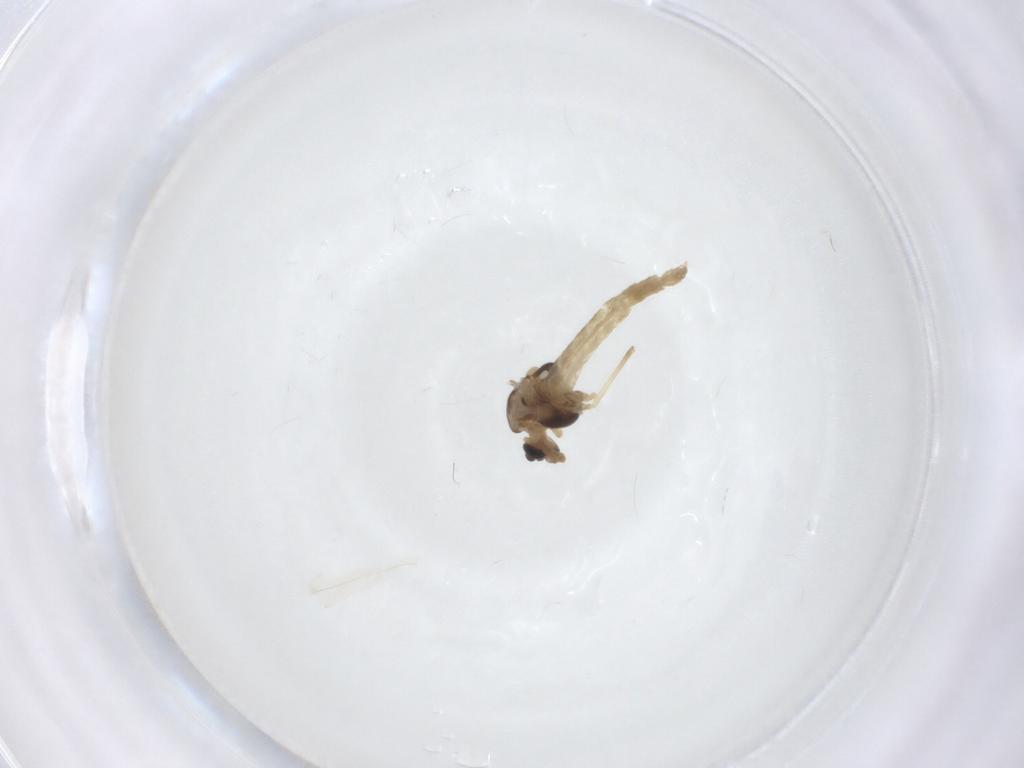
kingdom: Animalia
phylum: Arthropoda
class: Insecta
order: Diptera
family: Chironomidae
